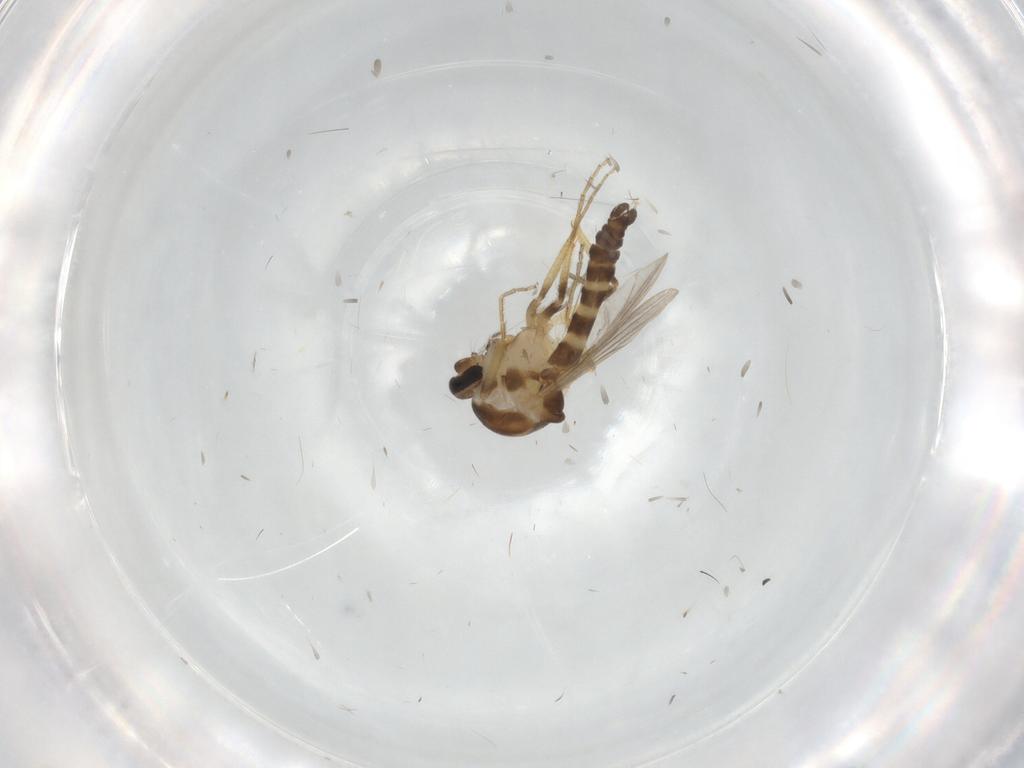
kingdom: Animalia
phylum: Arthropoda
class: Insecta
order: Diptera
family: Ceratopogonidae
